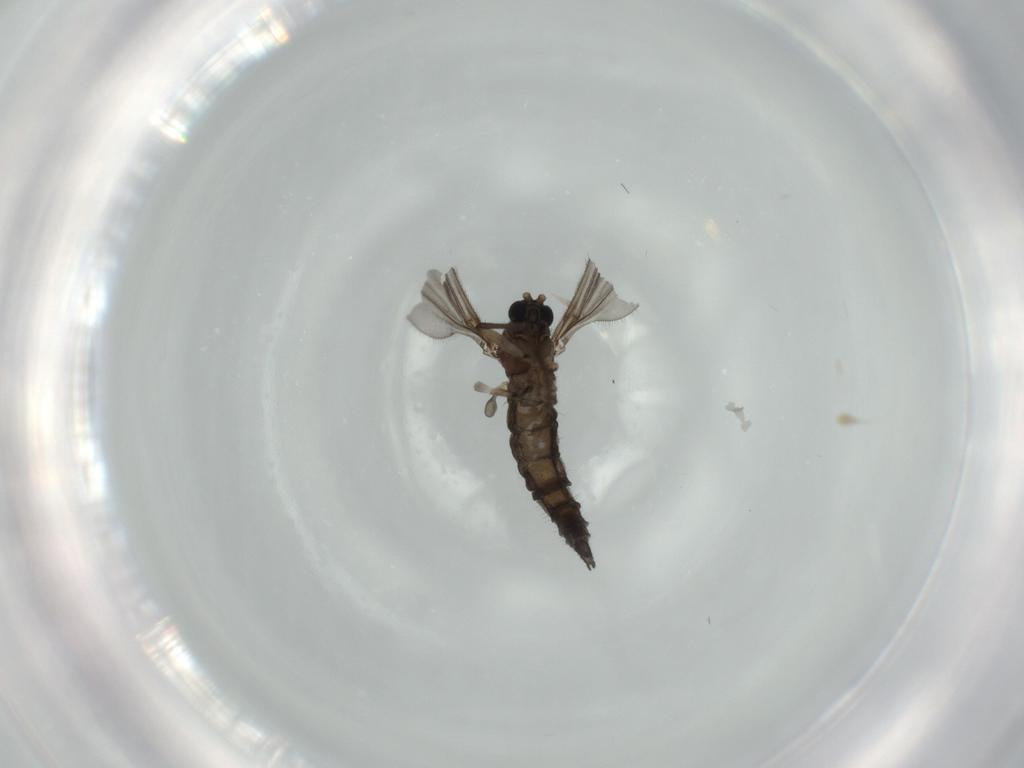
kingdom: Animalia
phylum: Arthropoda
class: Insecta
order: Diptera
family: Sciaridae
